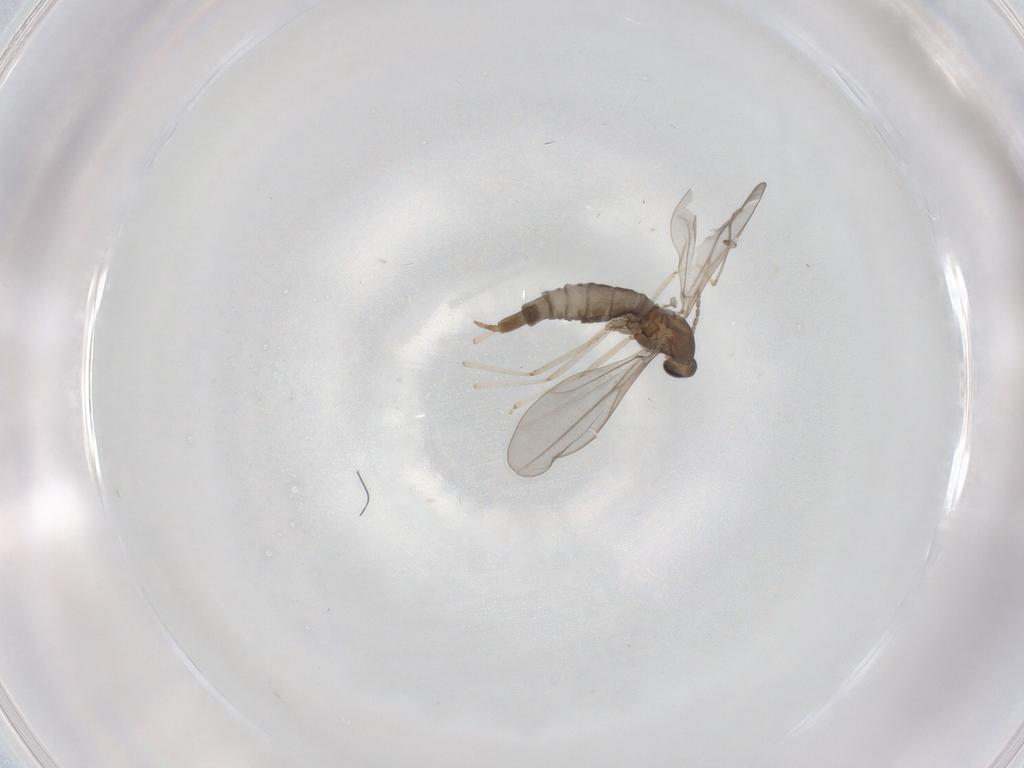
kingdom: Animalia
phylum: Arthropoda
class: Insecta
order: Diptera
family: Cecidomyiidae
